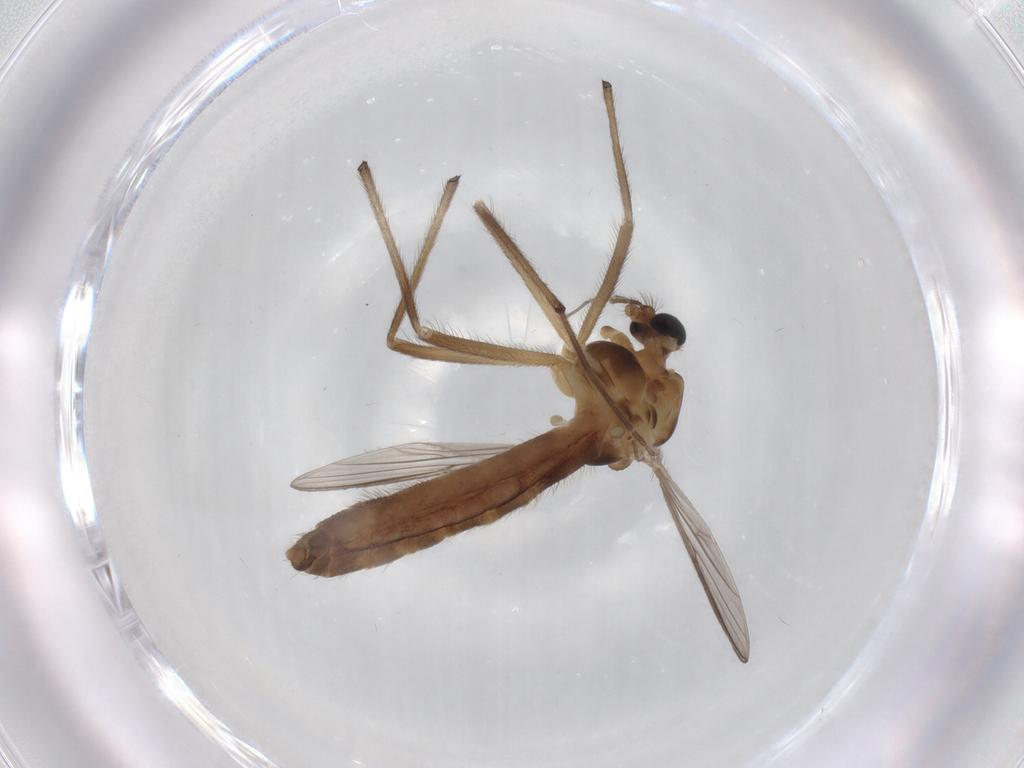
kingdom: Animalia
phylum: Arthropoda
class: Insecta
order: Diptera
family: Chironomidae
